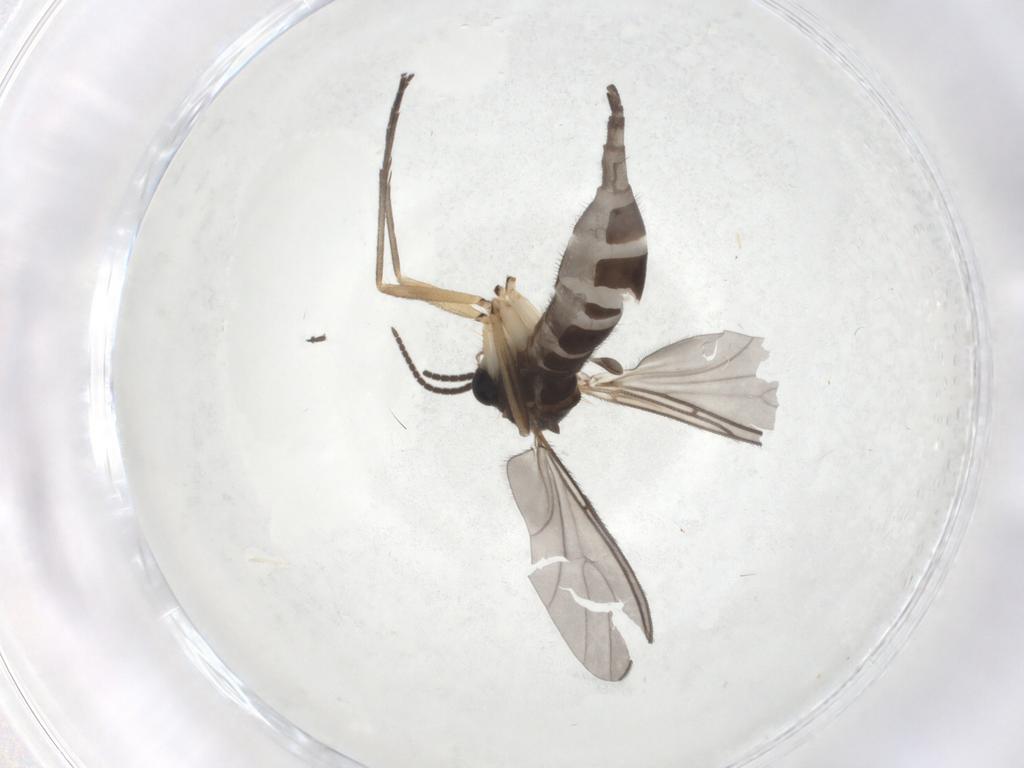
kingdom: Animalia
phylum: Arthropoda
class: Insecta
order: Diptera
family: Sciaridae
